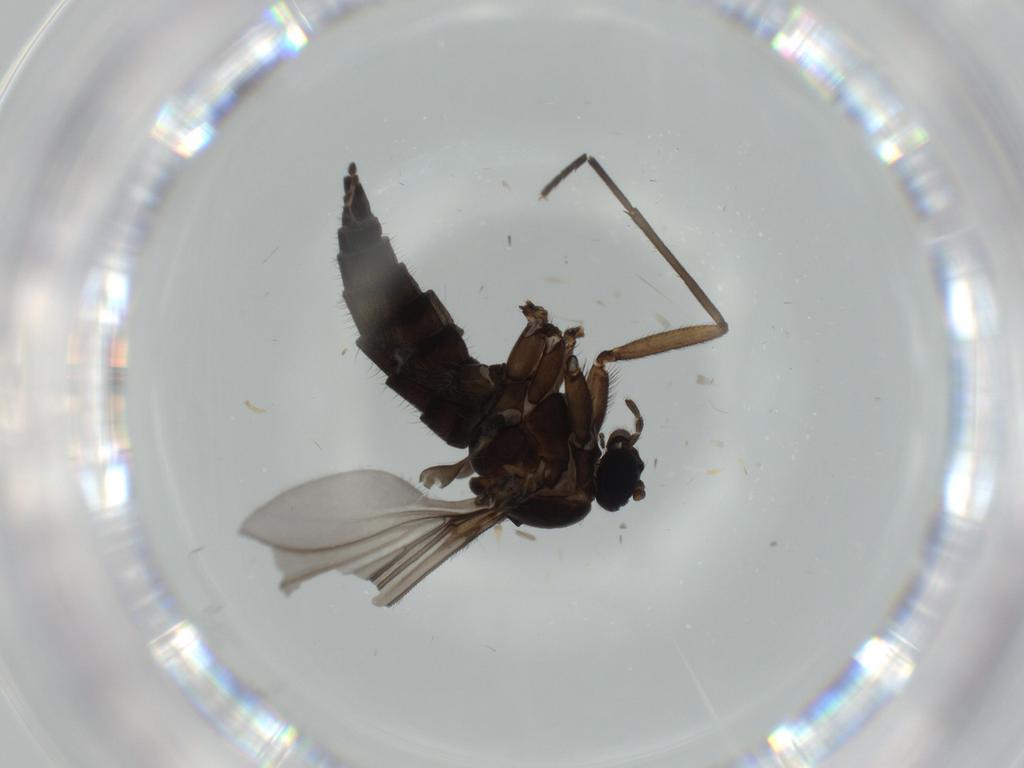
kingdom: Animalia
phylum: Arthropoda
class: Insecta
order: Diptera
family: Sciaridae
